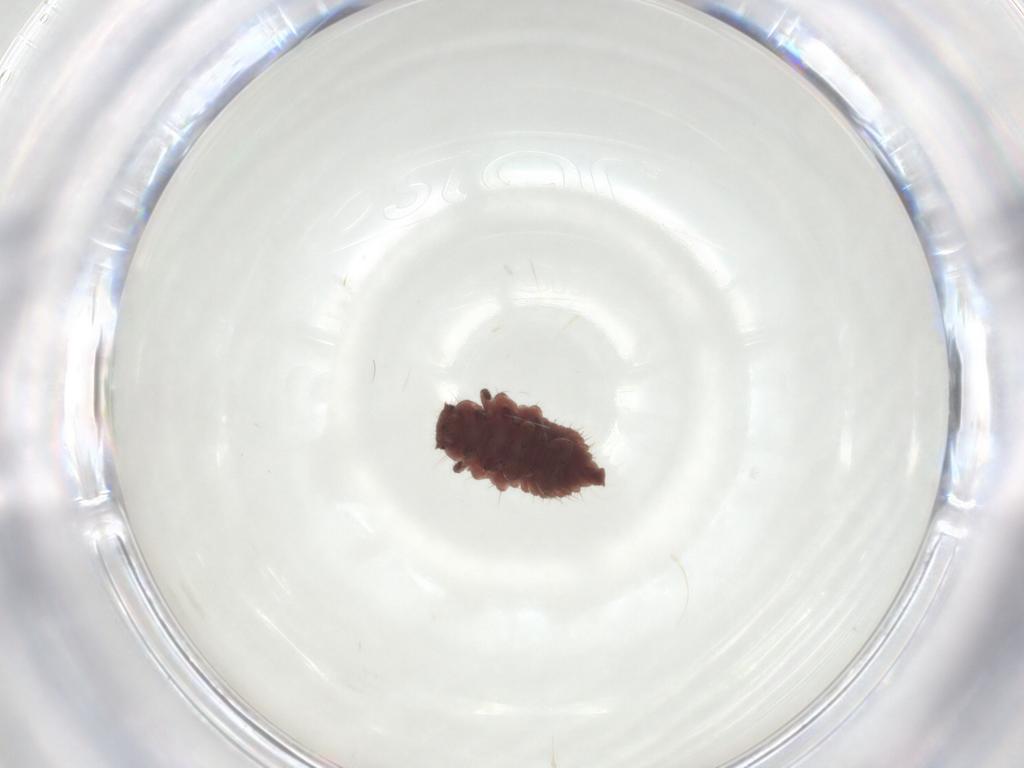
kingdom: Animalia
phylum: Arthropoda
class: Insecta
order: Coleoptera
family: Coccinellidae
